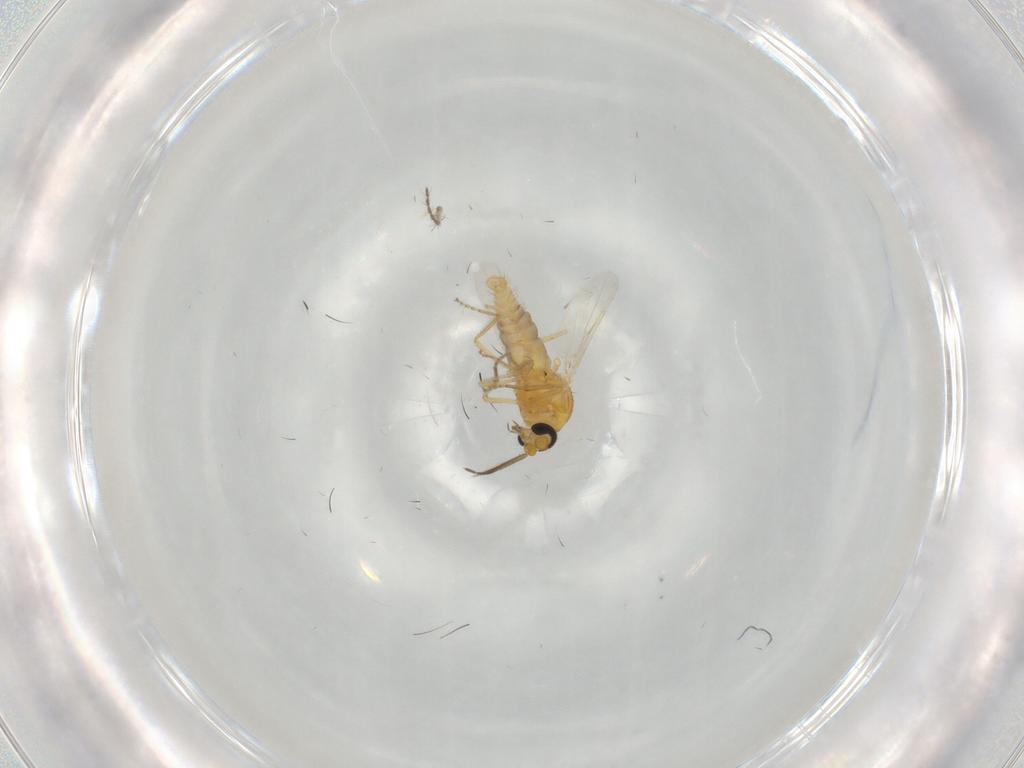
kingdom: Animalia
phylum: Arthropoda
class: Insecta
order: Diptera
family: Ceratopogonidae
